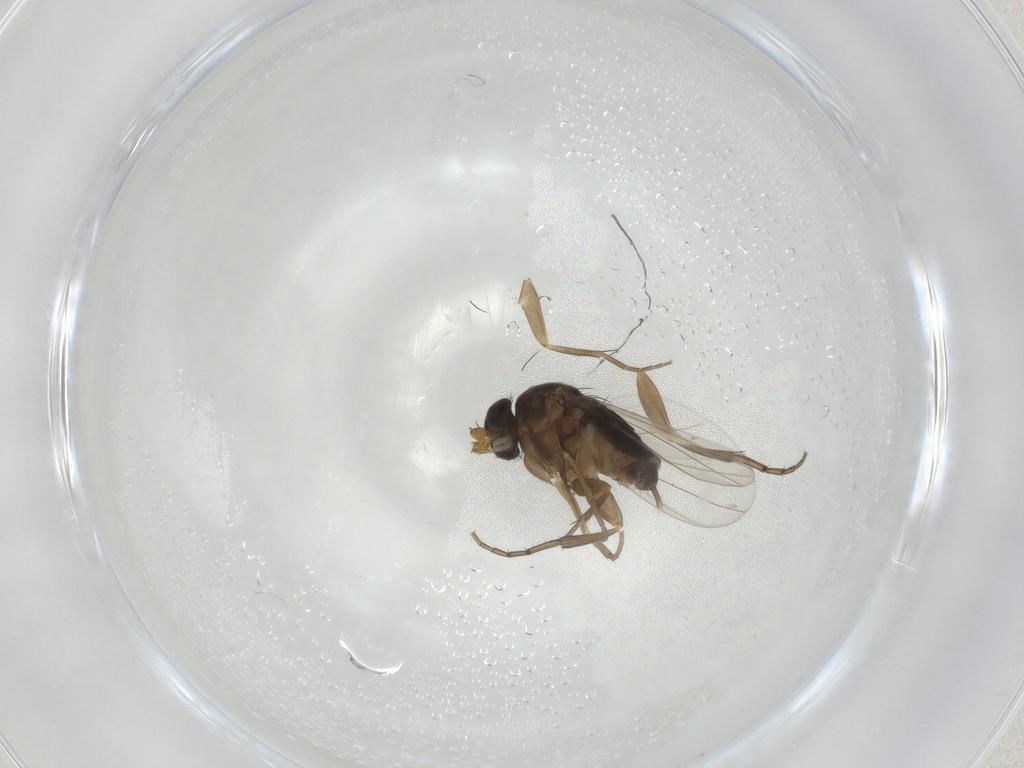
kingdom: Animalia
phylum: Arthropoda
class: Insecta
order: Diptera
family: Phoridae
